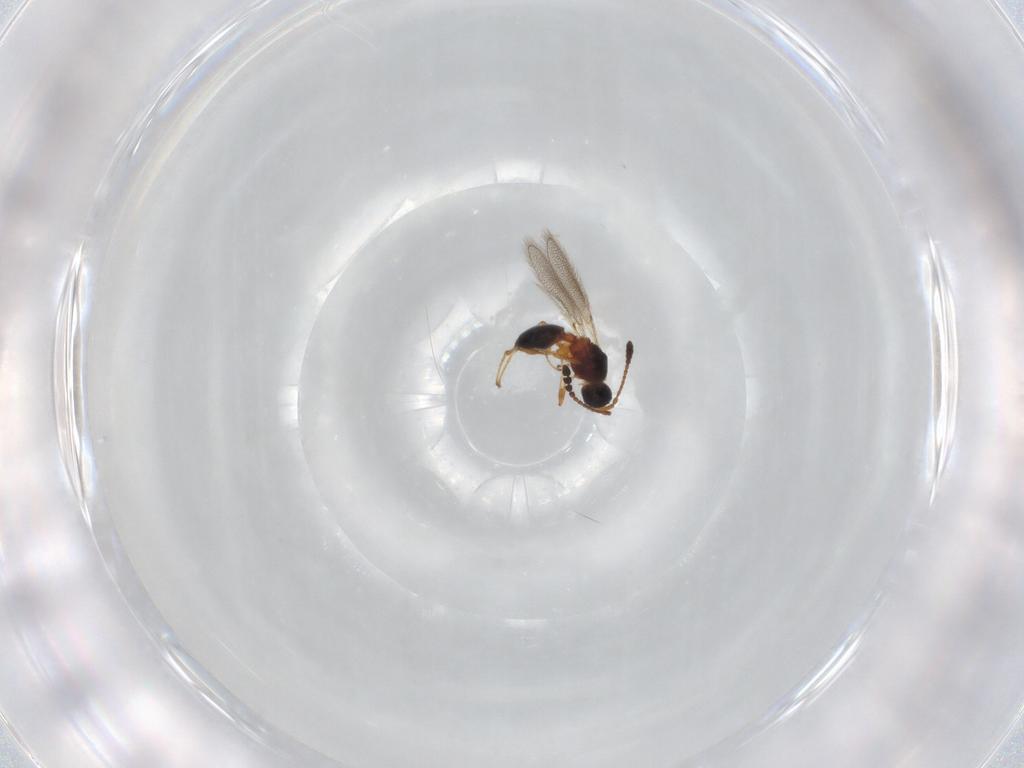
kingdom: Animalia
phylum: Arthropoda
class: Insecta
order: Hymenoptera
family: Diapriidae
